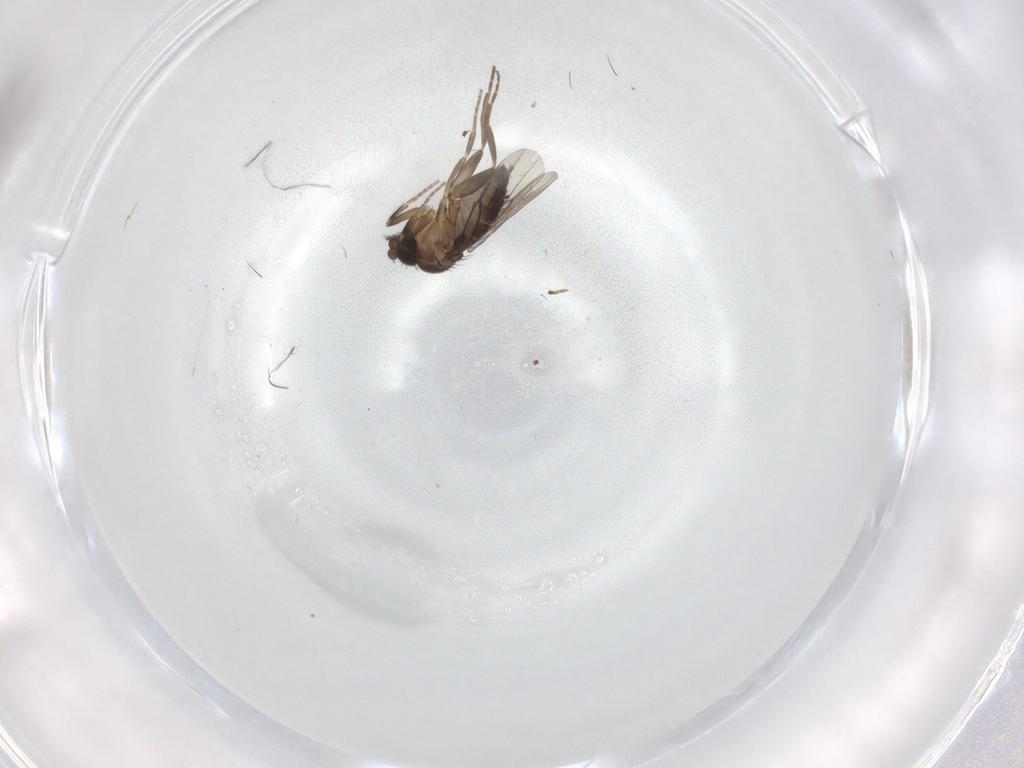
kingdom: Animalia
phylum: Arthropoda
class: Insecta
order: Diptera
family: Cecidomyiidae
